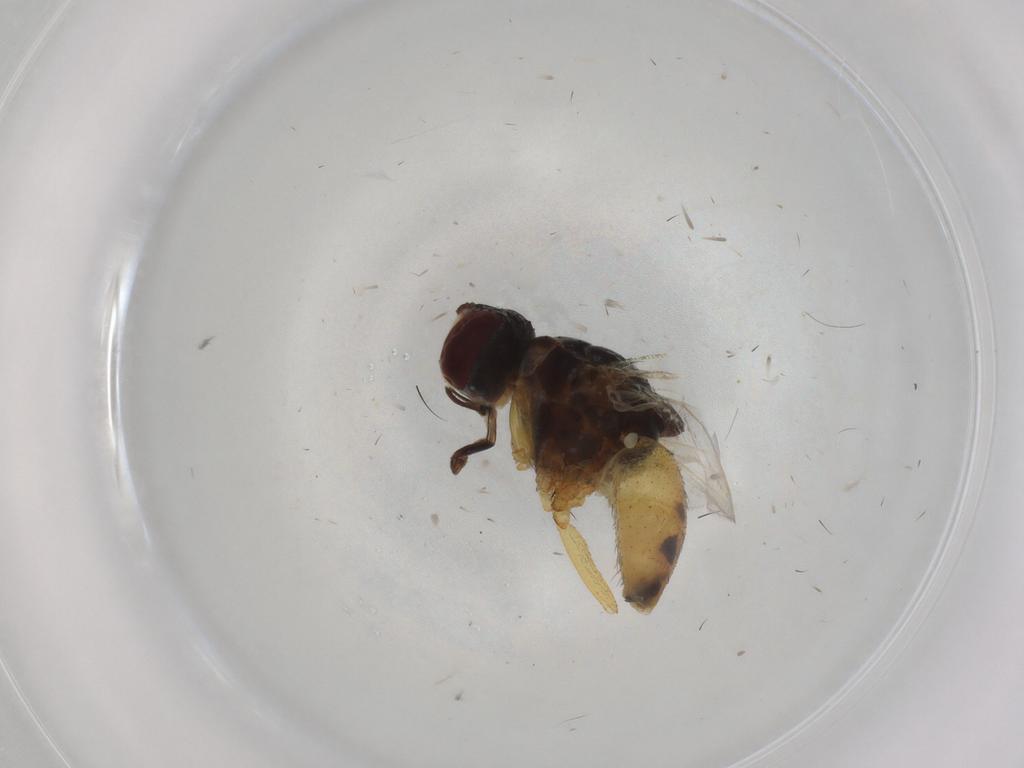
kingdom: Animalia
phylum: Arthropoda
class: Insecta
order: Diptera
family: Muscidae
